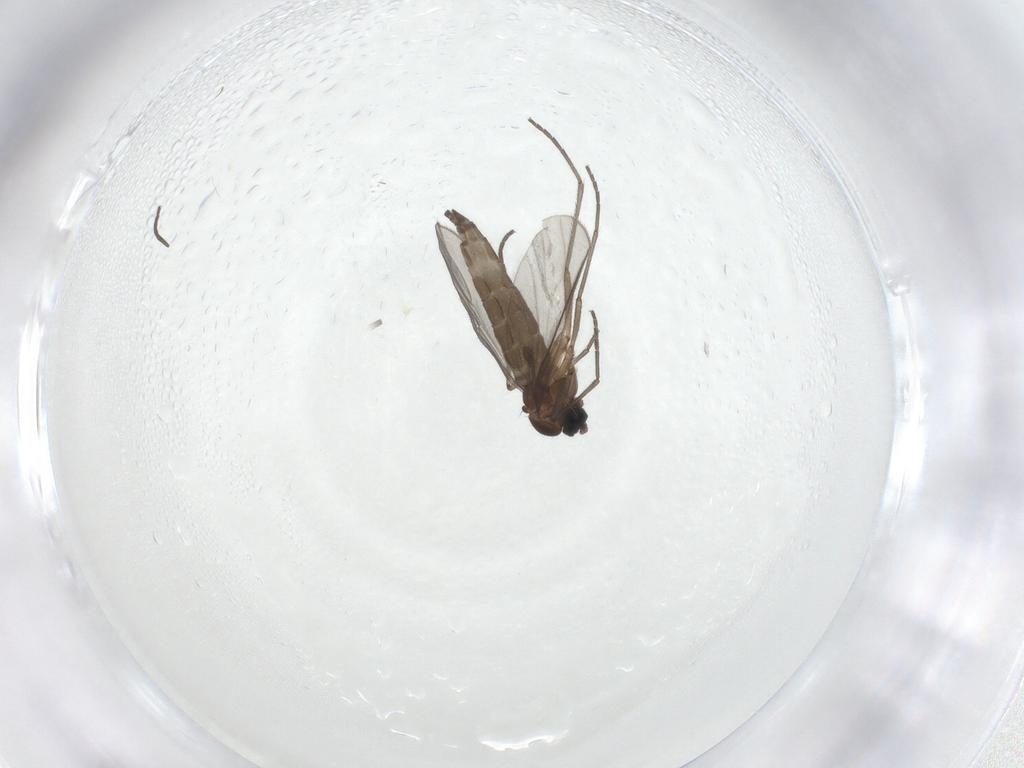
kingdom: Animalia
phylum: Arthropoda
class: Insecta
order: Diptera
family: Sciaridae
